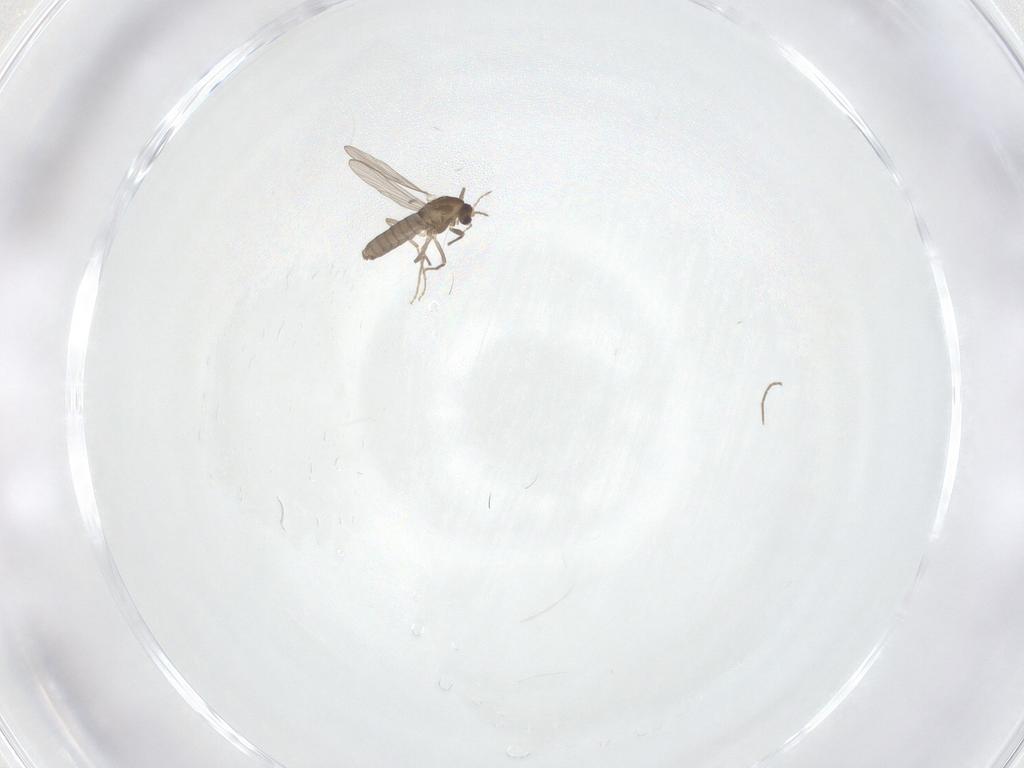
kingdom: Animalia
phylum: Arthropoda
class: Insecta
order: Diptera
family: Chironomidae
